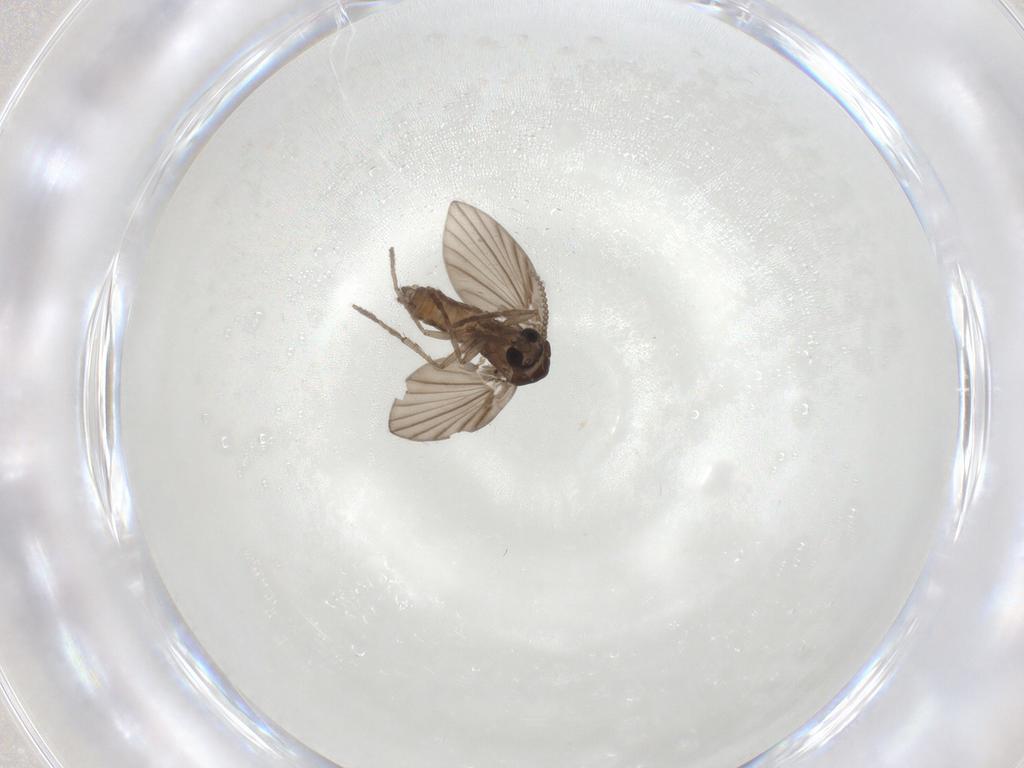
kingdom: Animalia
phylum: Arthropoda
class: Insecta
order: Diptera
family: Psychodidae
